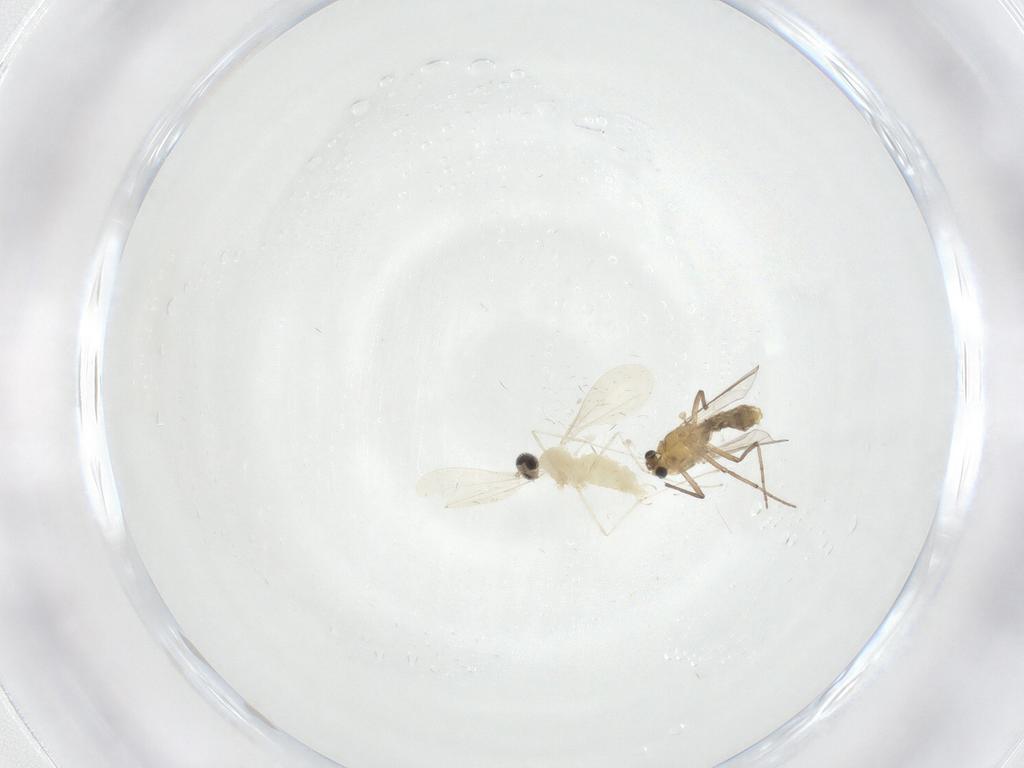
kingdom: Animalia
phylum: Arthropoda
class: Insecta
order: Diptera
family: Cecidomyiidae
